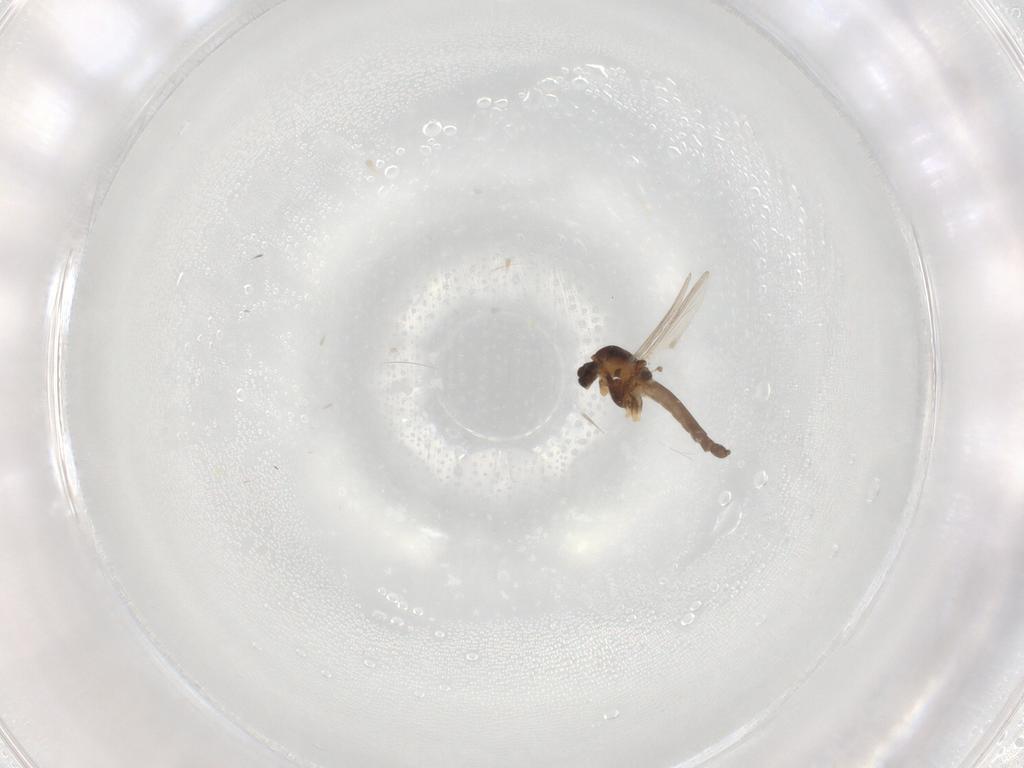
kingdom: Animalia
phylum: Arthropoda
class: Insecta
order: Diptera
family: Chironomidae
